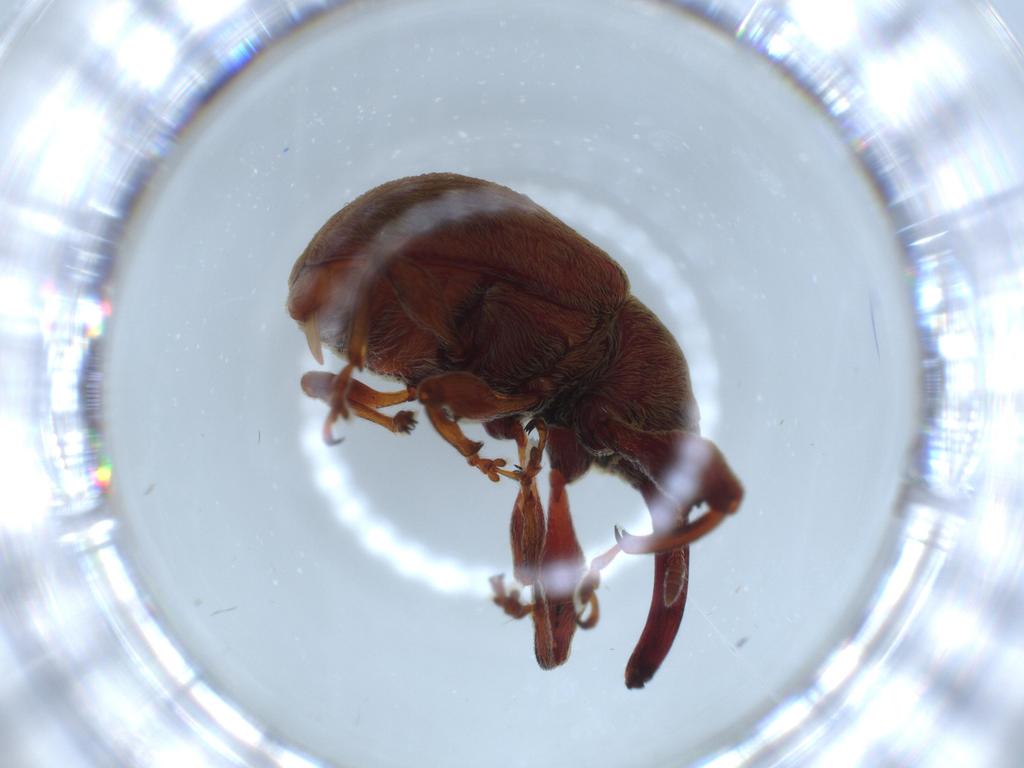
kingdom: Animalia
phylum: Arthropoda
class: Insecta
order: Coleoptera
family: Curculionidae
